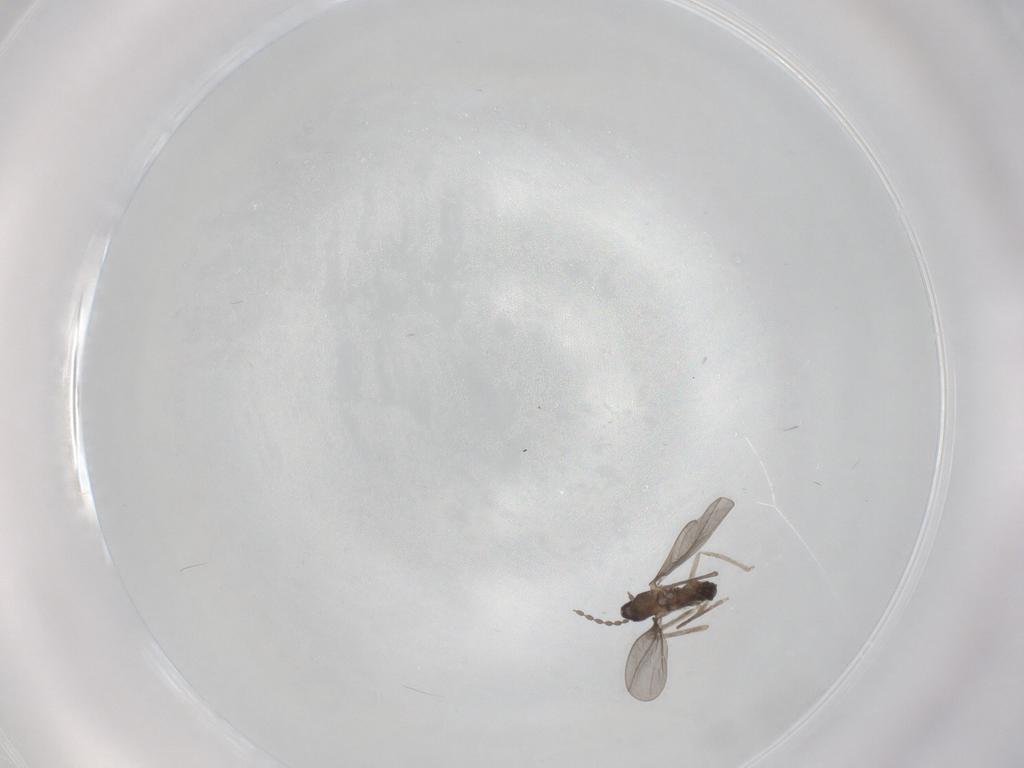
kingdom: Animalia
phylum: Arthropoda
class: Insecta
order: Diptera
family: Cecidomyiidae
